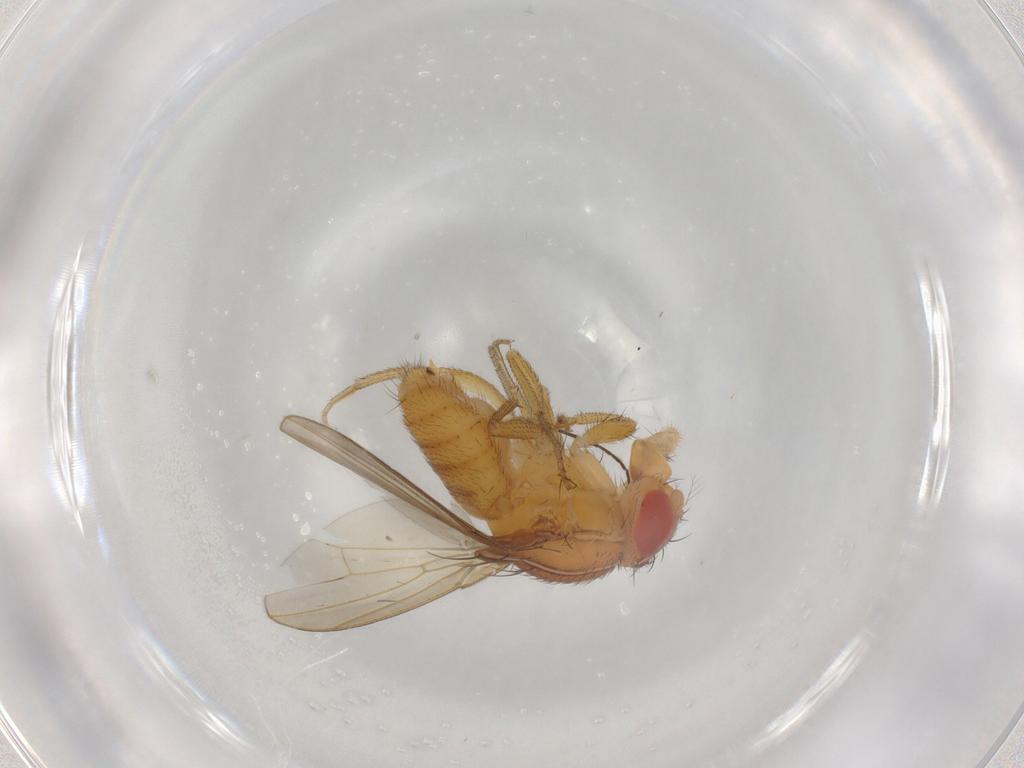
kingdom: Animalia
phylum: Arthropoda
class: Insecta
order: Diptera
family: Drosophilidae
